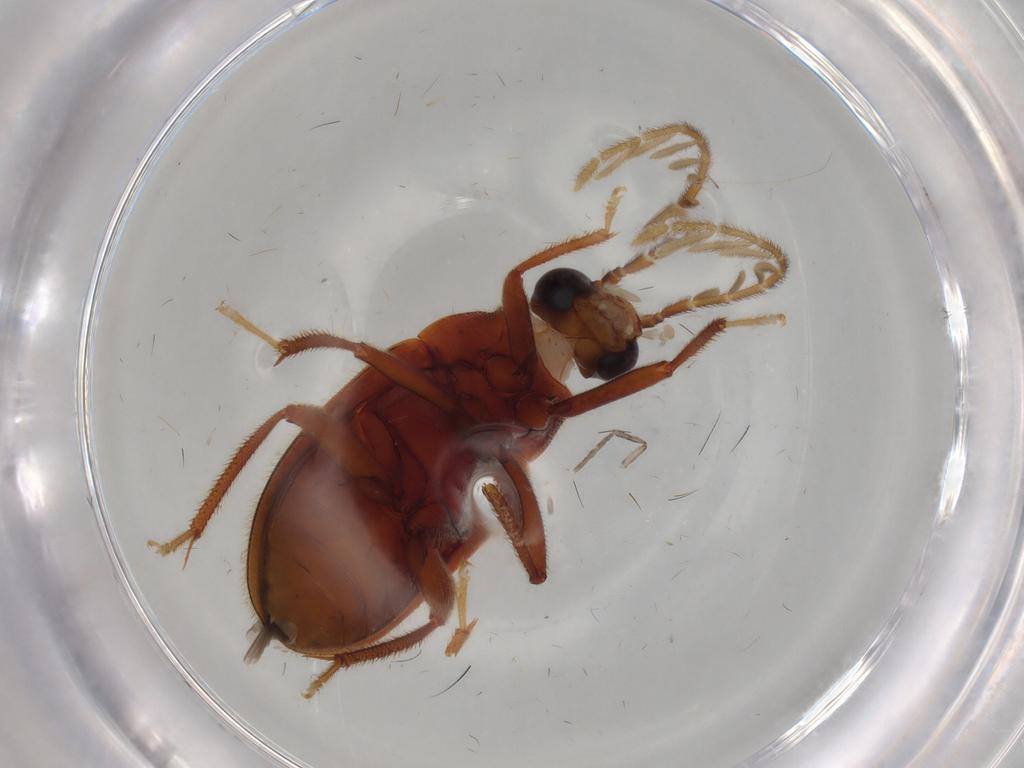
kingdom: Animalia
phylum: Arthropoda
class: Insecta
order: Coleoptera
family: Ptilodactylidae
